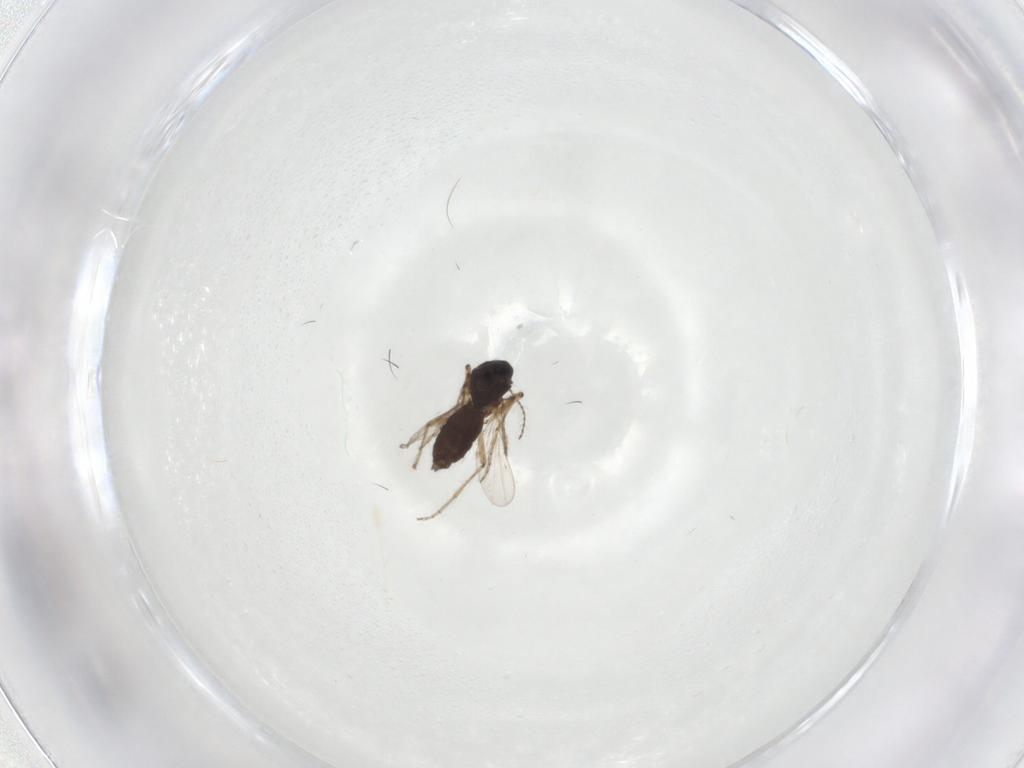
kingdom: Animalia
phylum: Arthropoda
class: Insecta
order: Diptera
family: Ceratopogonidae
